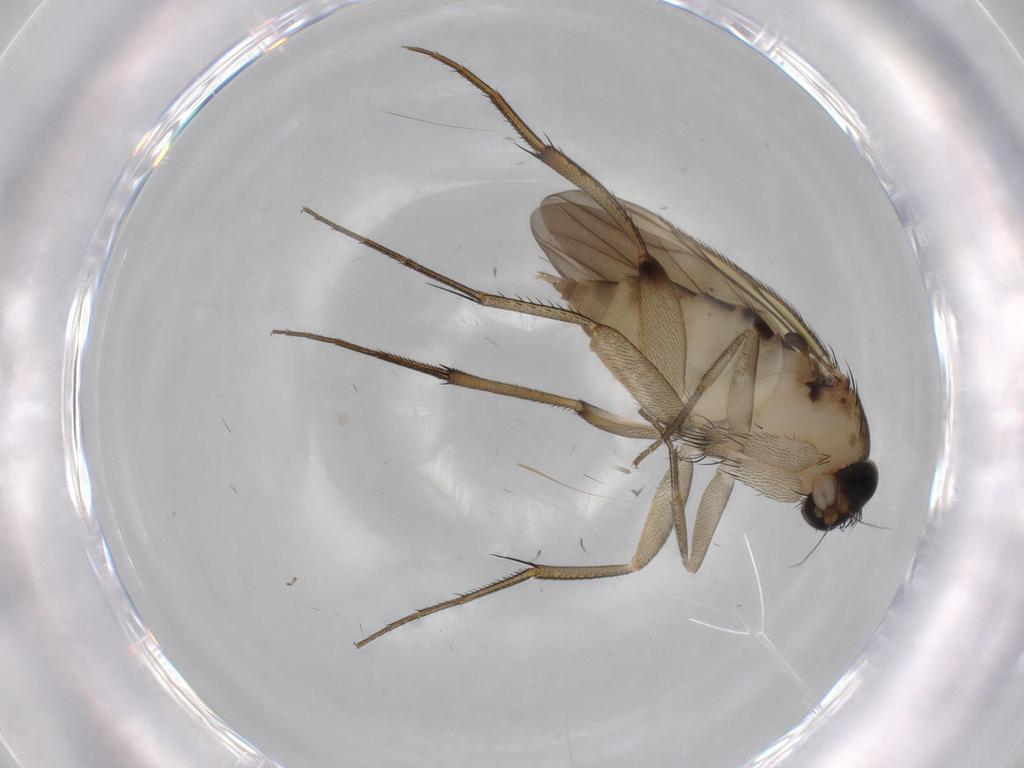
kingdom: Animalia
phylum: Arthropoda
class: Insecta
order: Diptera
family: Phoridae
